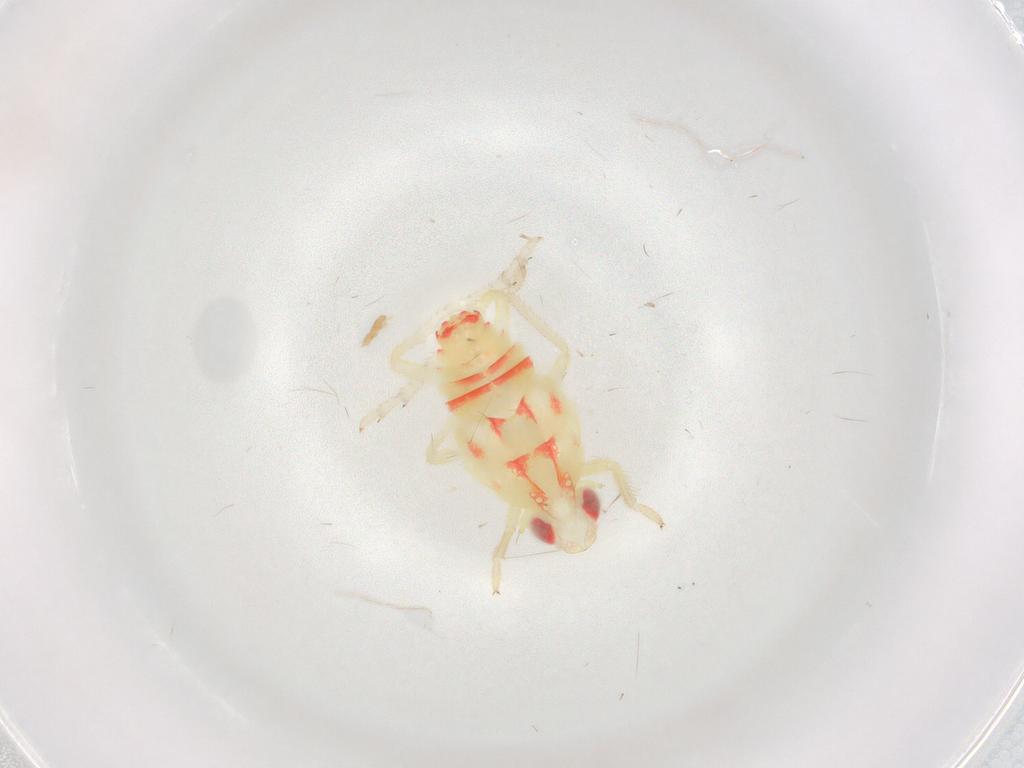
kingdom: Animalia
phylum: Arthropoda
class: Insecta
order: Hemiptera
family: Tropiduchidae
